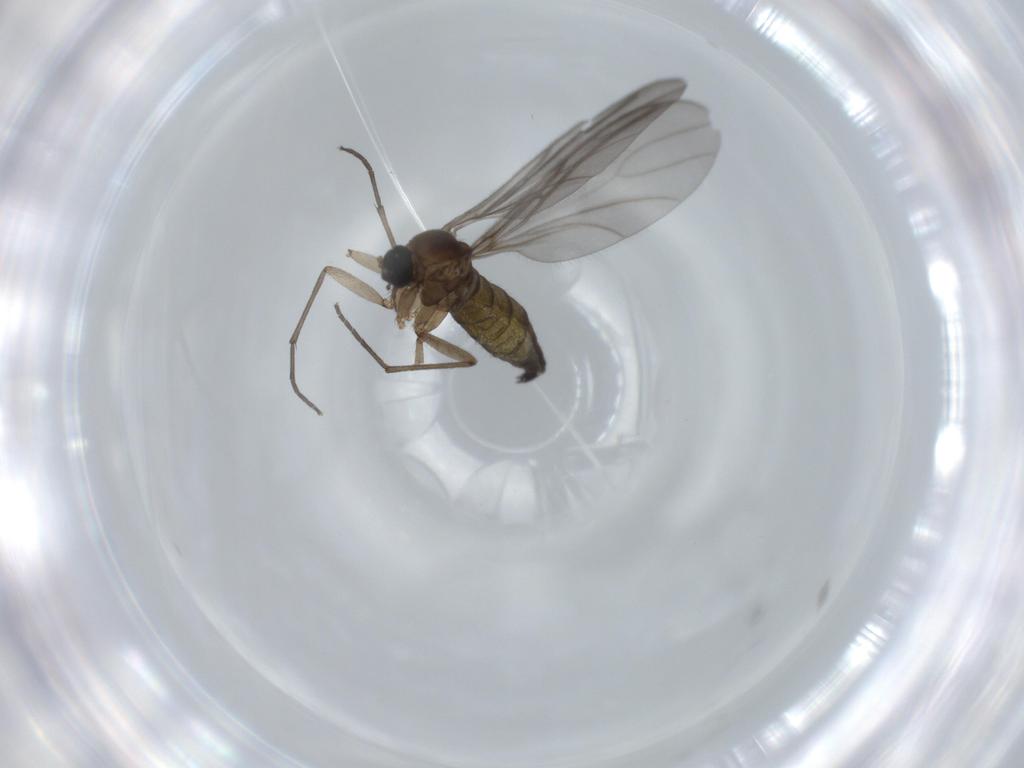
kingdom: Animalia
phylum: Arthropoda
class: Insecta
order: Diptera
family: Sciaridae
